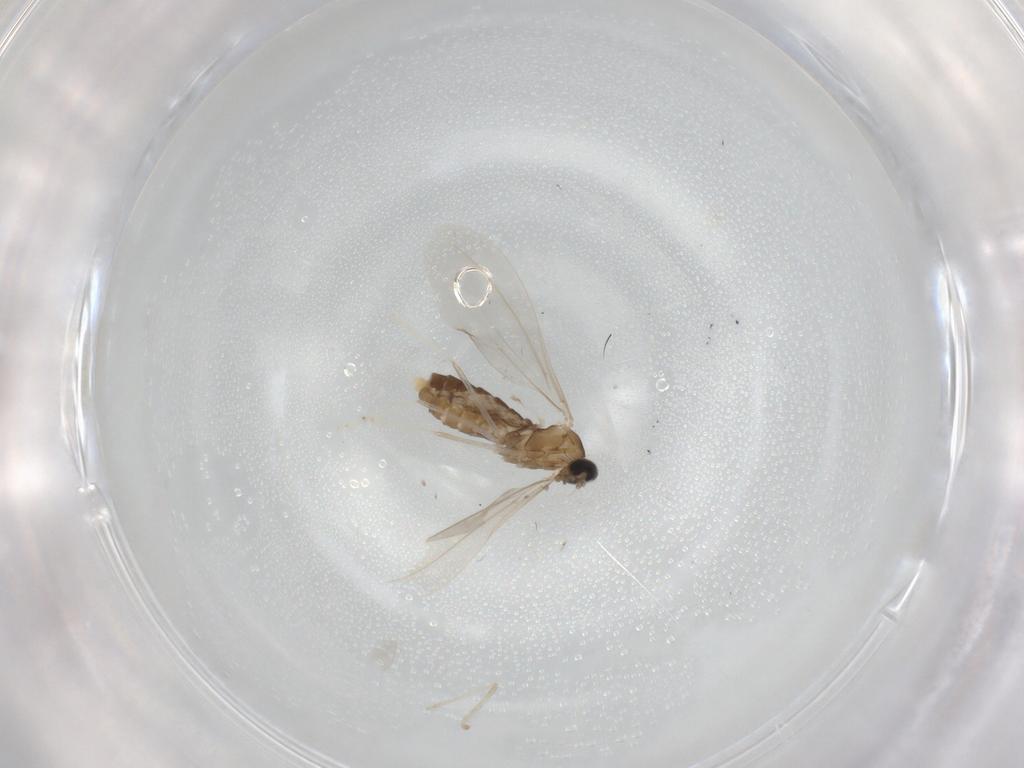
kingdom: Animalia
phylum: Arthropoda
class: Insecta
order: Diptera
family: Cecidomyiidae
